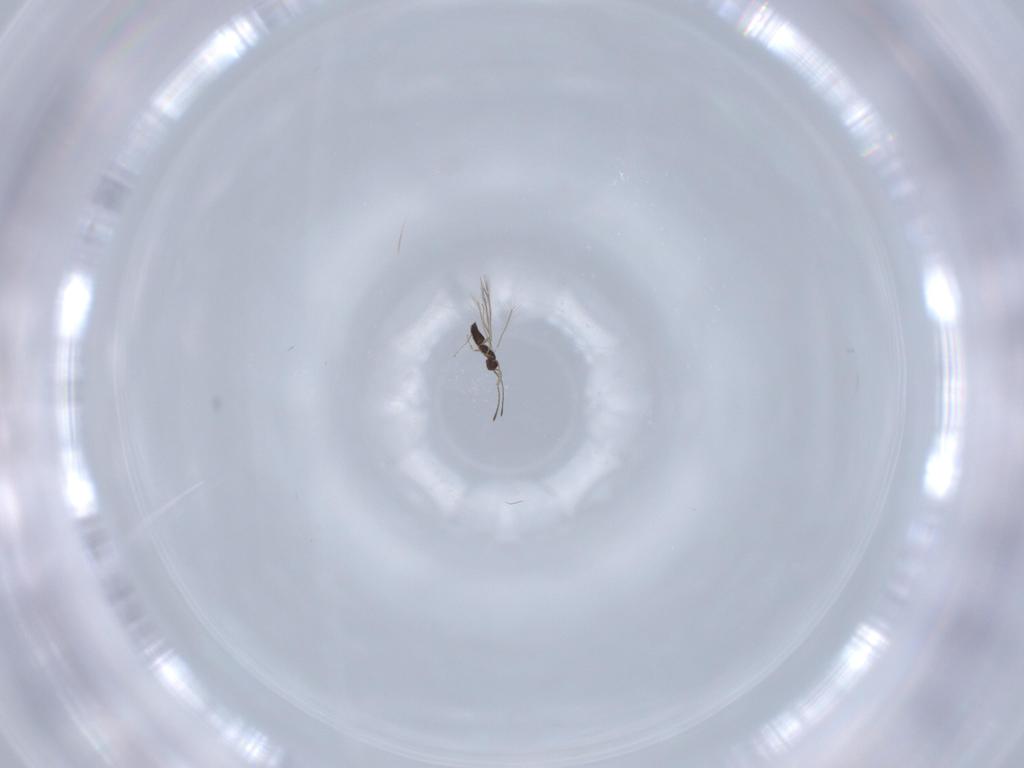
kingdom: Animalia
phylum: Arthropoda
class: Insecta
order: Hymenoptera
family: Mymaridae
